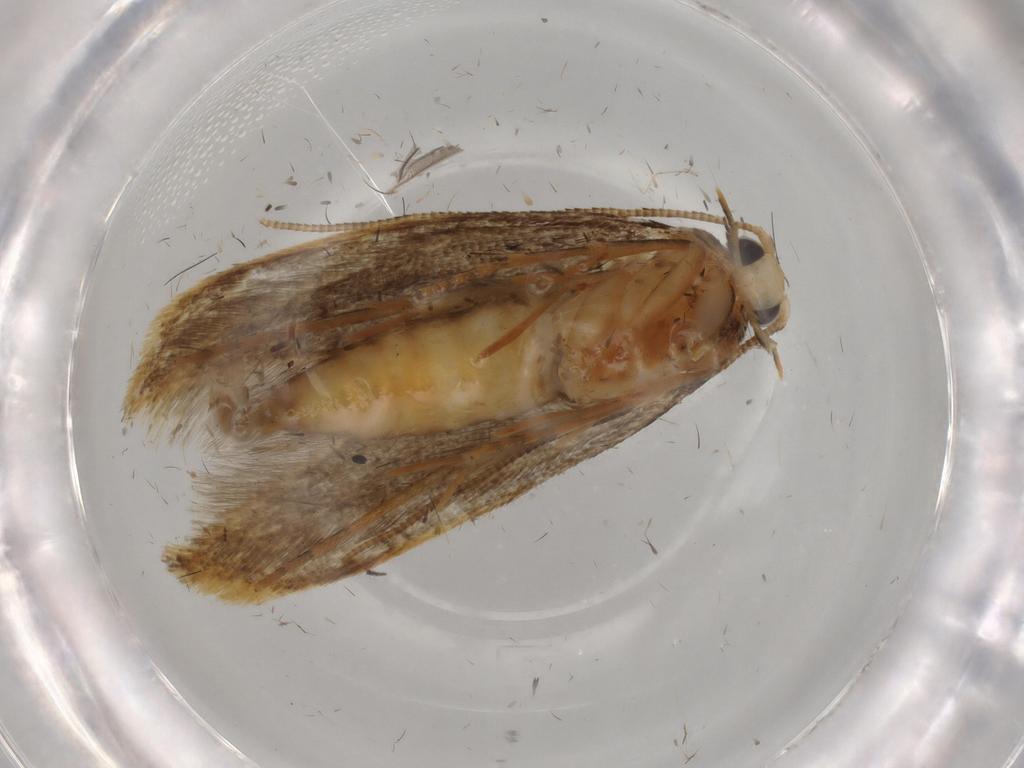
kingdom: Animalia
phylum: Arthropoda
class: Insecta
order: Lepidoptera
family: Tineidae
